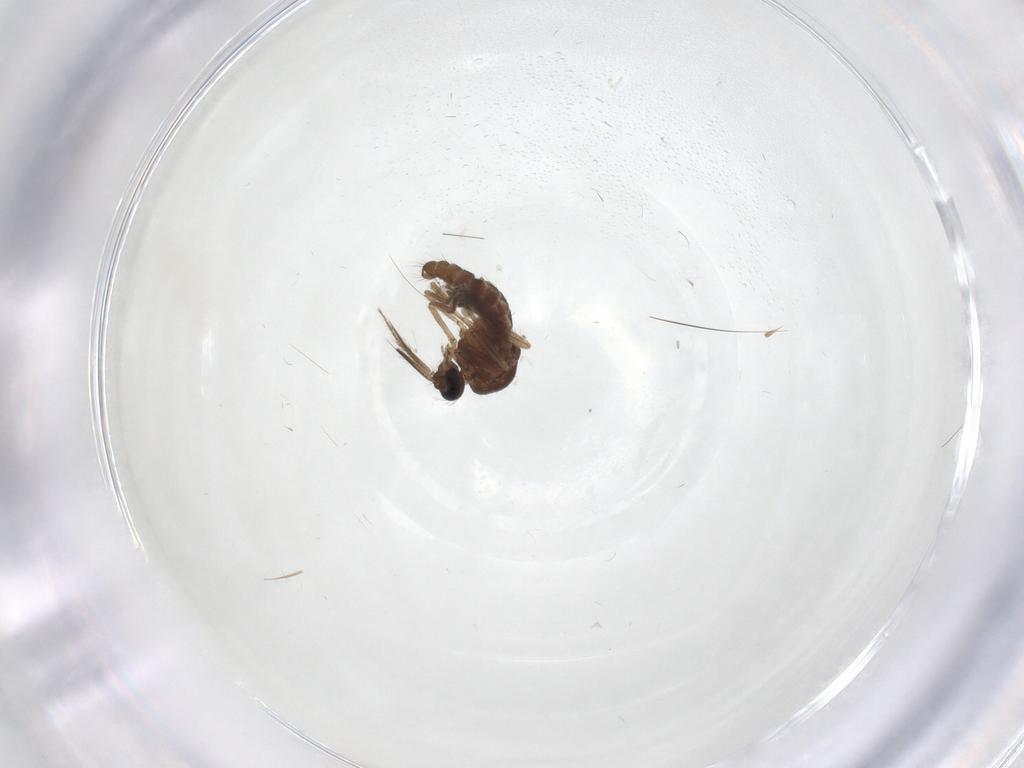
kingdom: Animalia
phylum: Arthropoda
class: Insecta
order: Diptera
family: Ceratopogonidae
